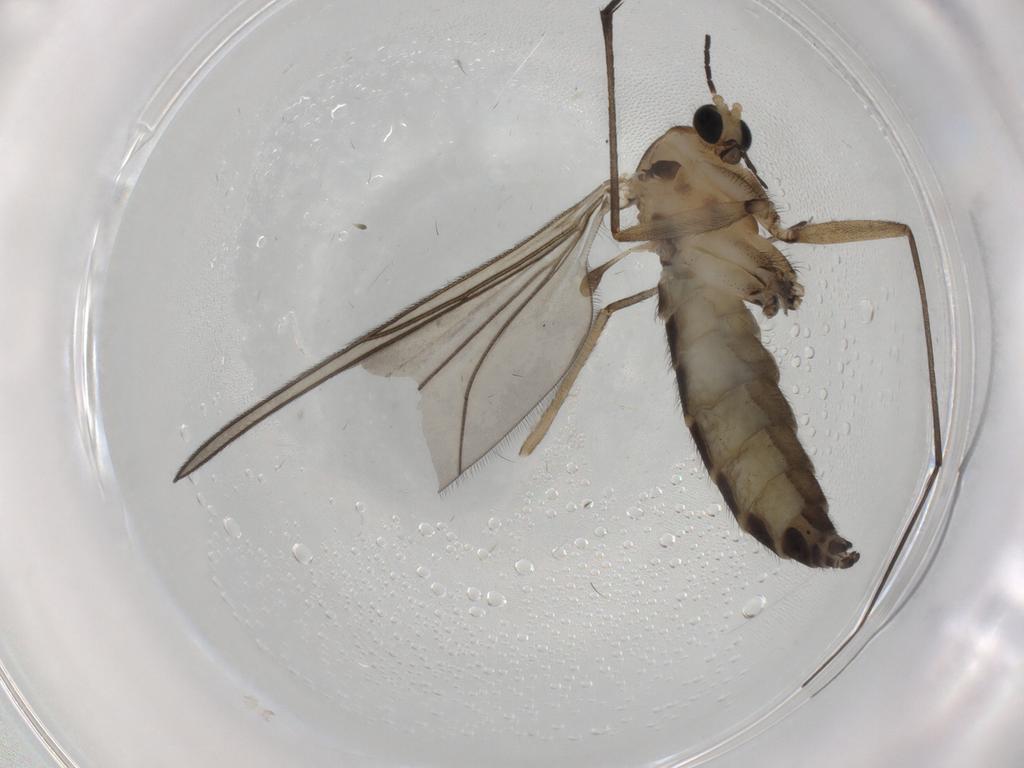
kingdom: Animalia
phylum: Arthropoda
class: Insecta
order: Diptera
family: Sciaridae
